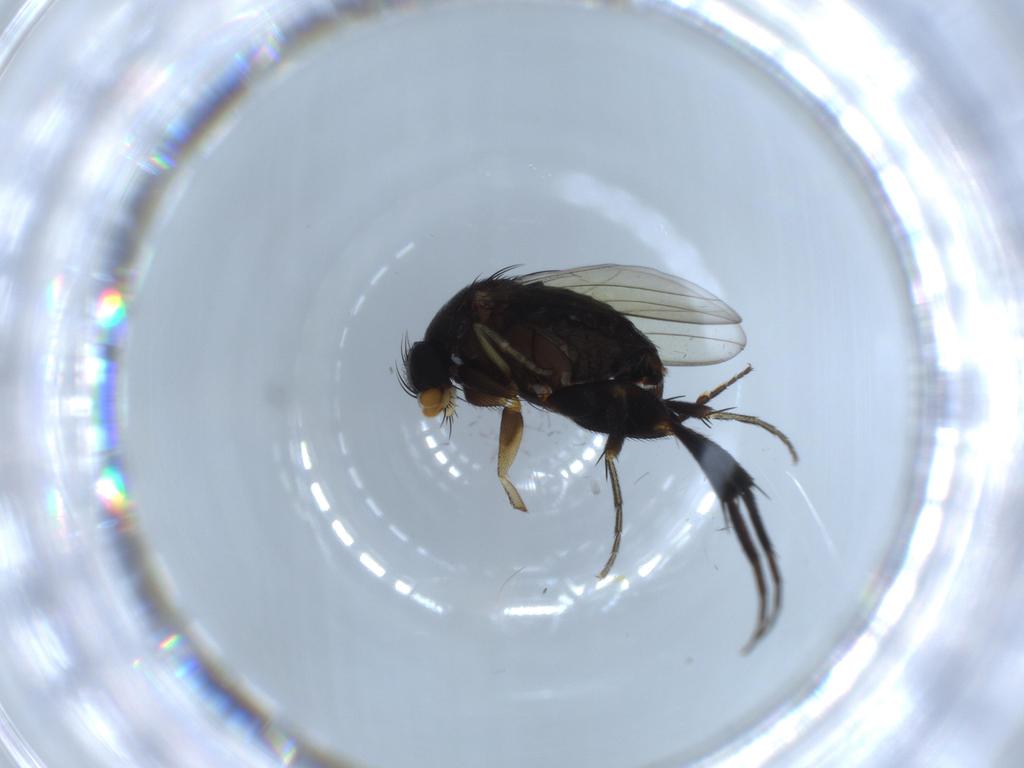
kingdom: Animalia
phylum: Arthropoda
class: Insecta
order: Diptera
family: Phoridae
